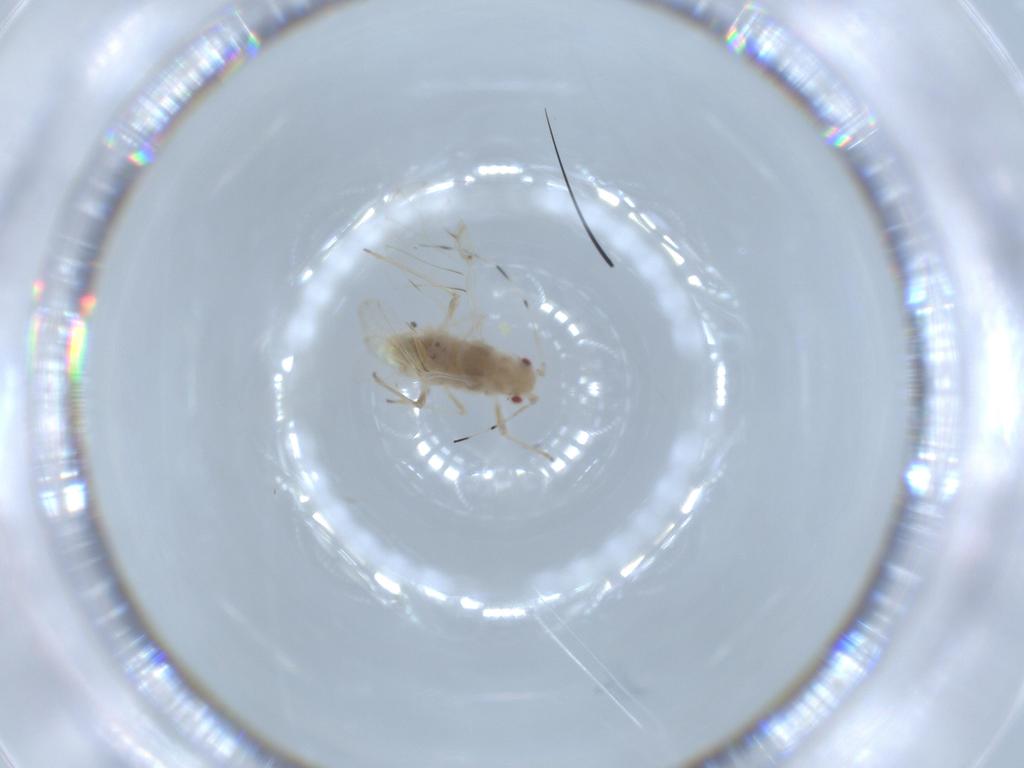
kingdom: Animalia
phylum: Arthropoda
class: Insecta
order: Hemiptera
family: Aphididae
